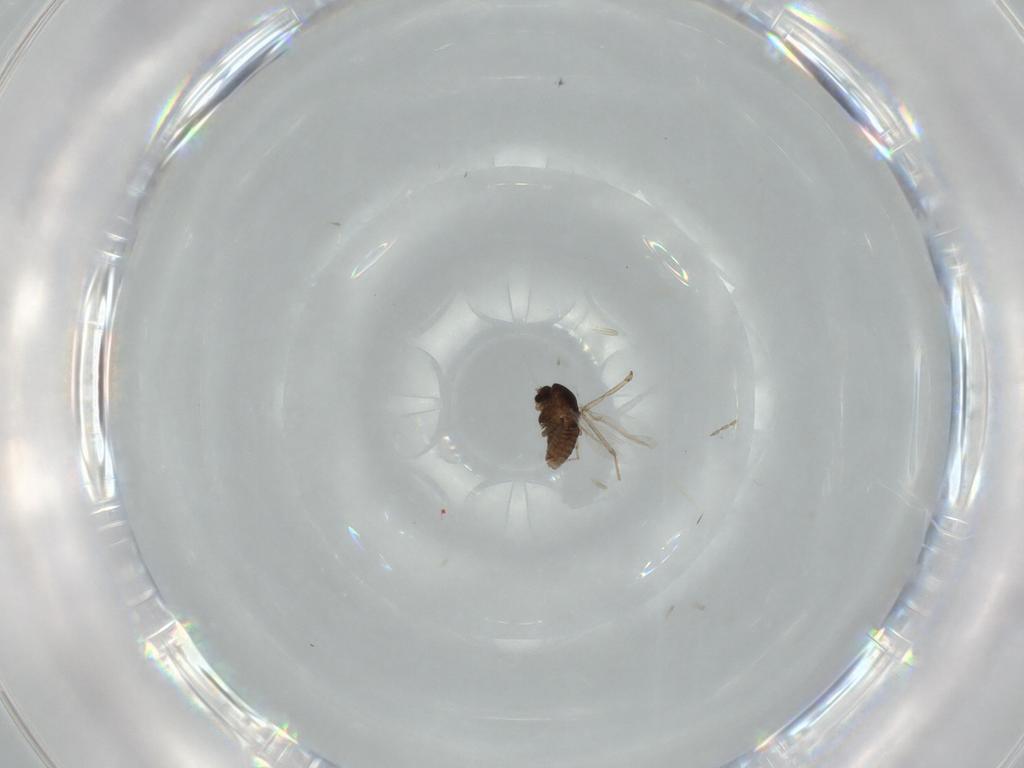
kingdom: Animalia
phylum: Arthropoda
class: Insecta
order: Diptera
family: Chironomidae
